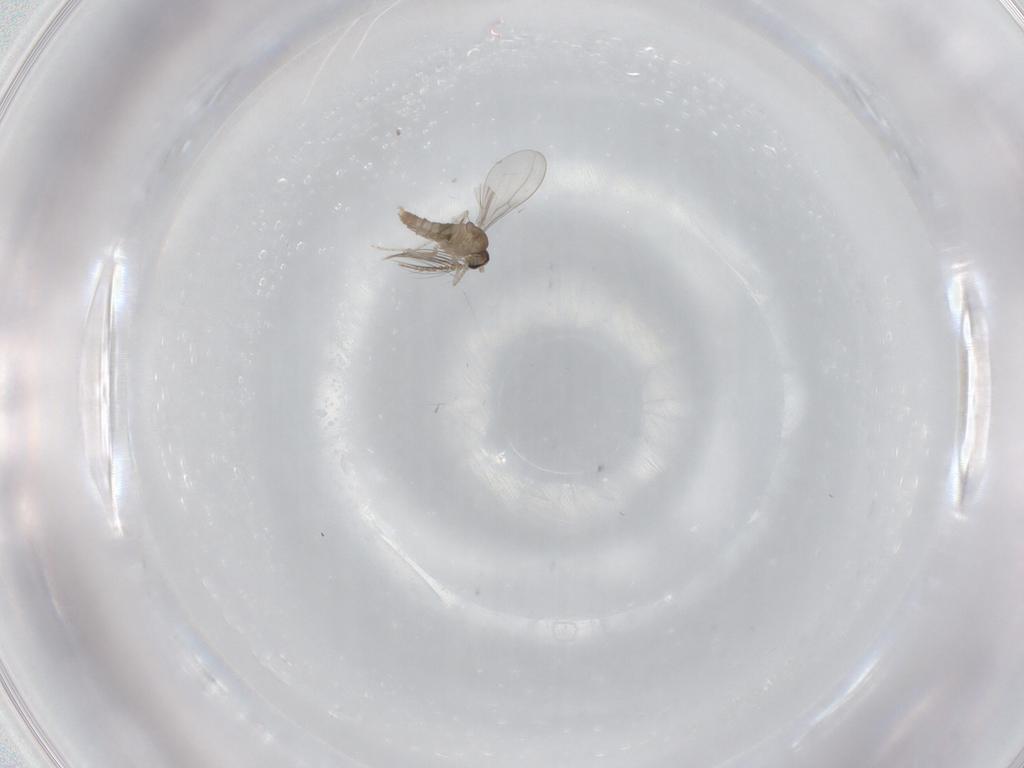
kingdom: Animalia
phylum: Arthropoda
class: Insecta
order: Diptera
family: Cecidomyiidae
